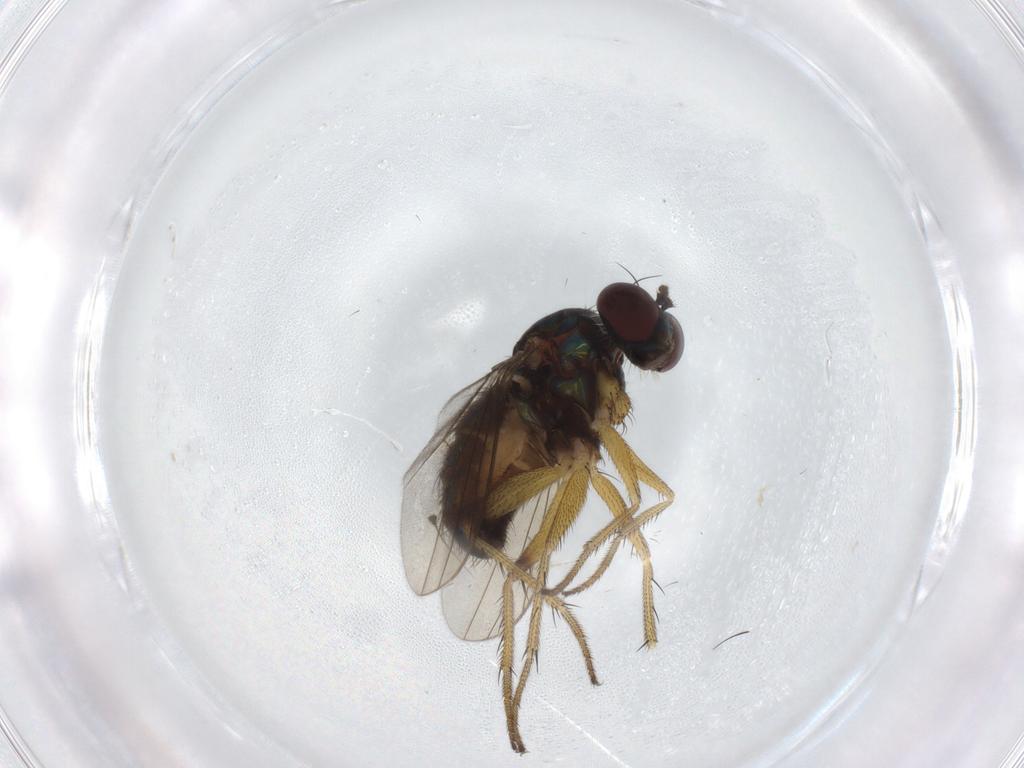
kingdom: Animalia
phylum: Arthropoda
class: Insecta
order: Diptera
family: Dolichopodidae
